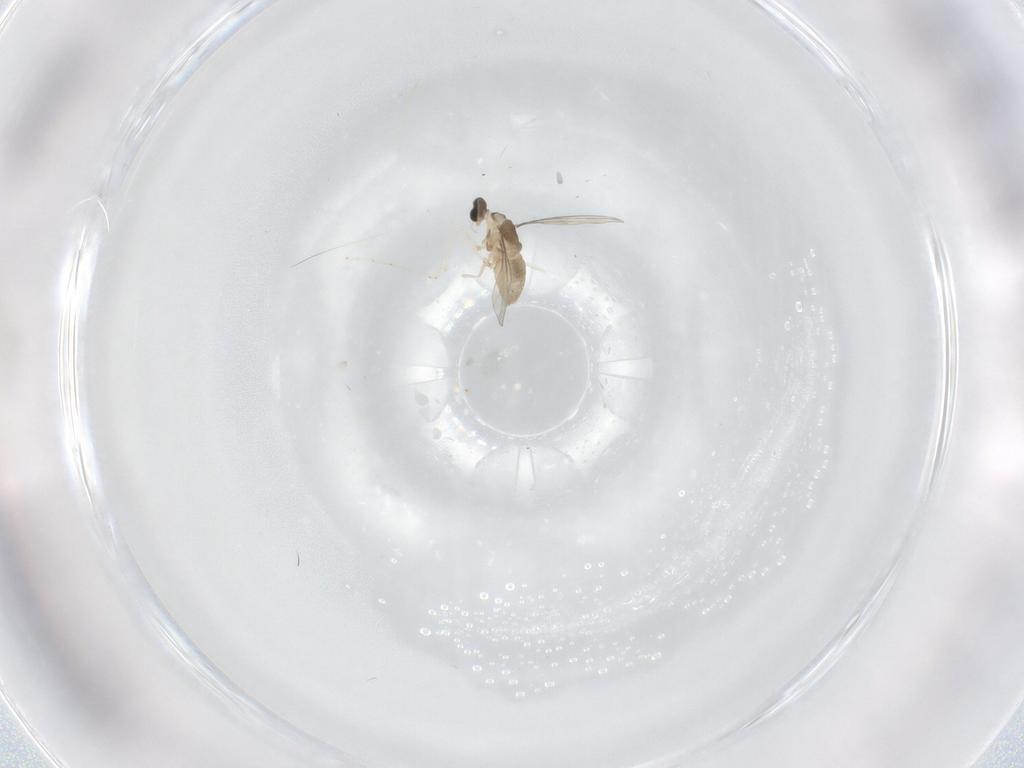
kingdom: Animalia
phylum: Arthropoda
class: Insecta
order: Diptera
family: Cecidomyiidae
